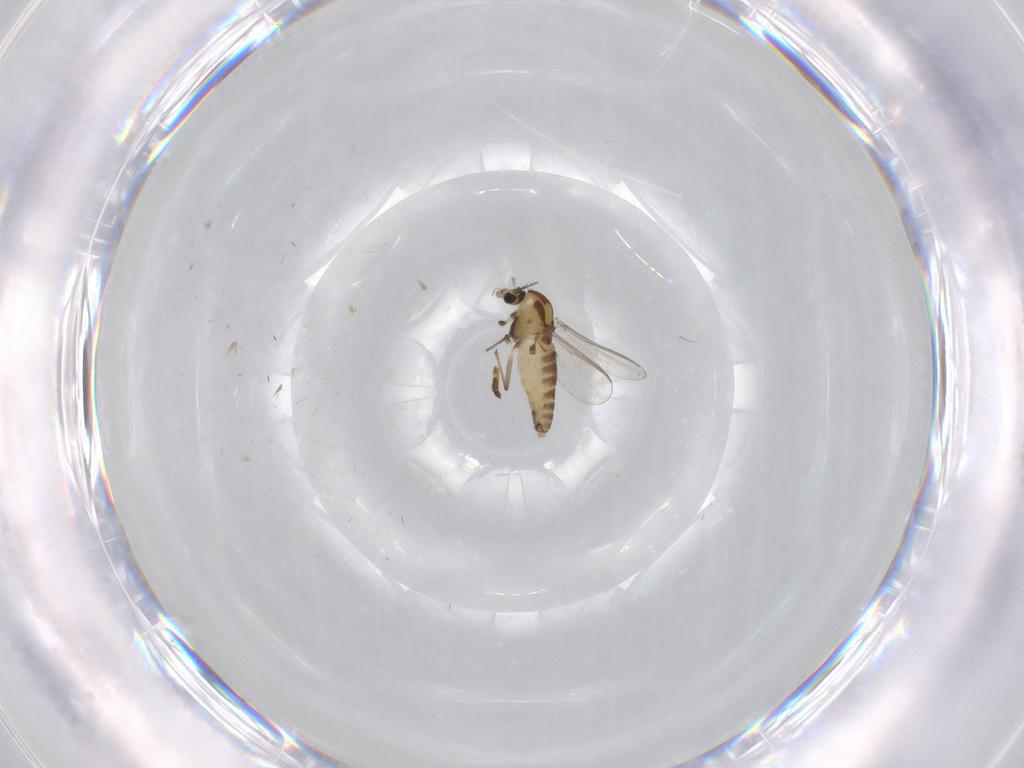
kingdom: Animalia
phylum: Arthropoda
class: Insecta
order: Diptera
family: Chironomidae
